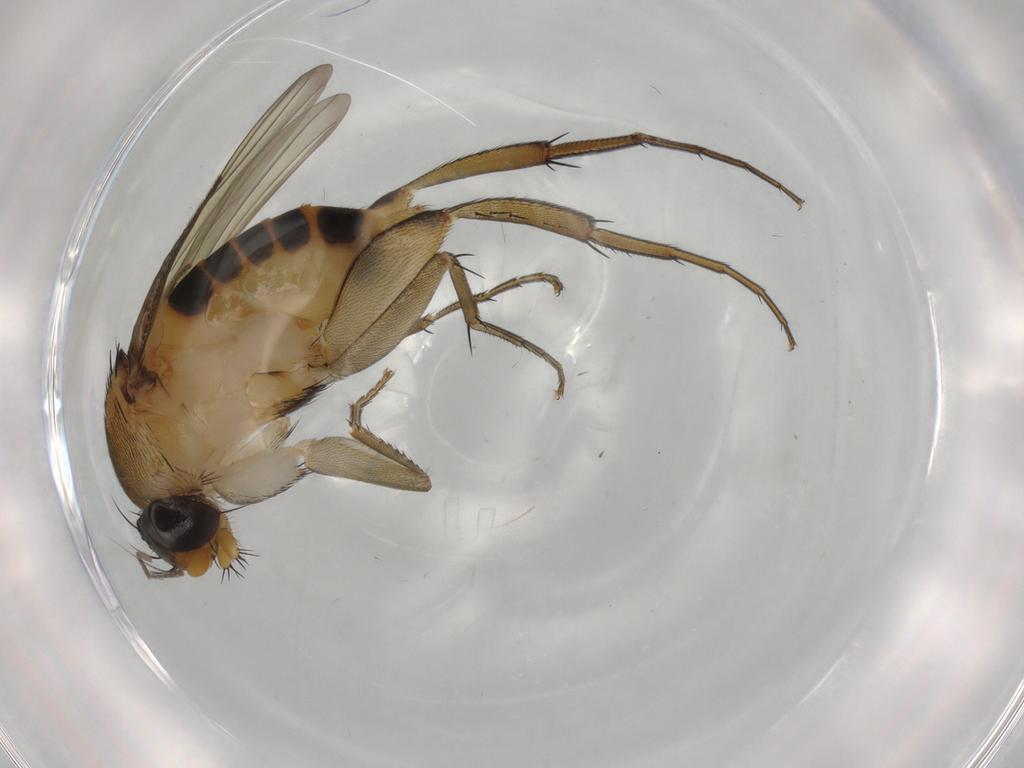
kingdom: Animalia
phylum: Arthropoda
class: Insecta
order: Diptera
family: Phoridae
